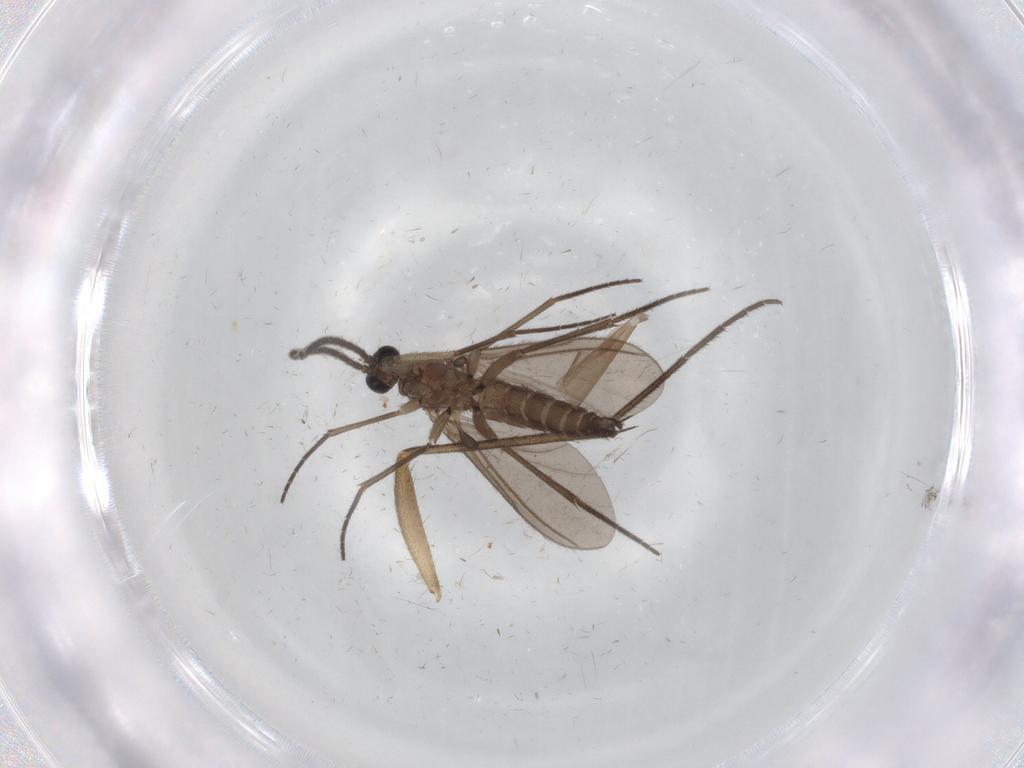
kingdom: Animalia
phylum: Arthropoda
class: Insecta
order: Diptera
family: Sciaridae
